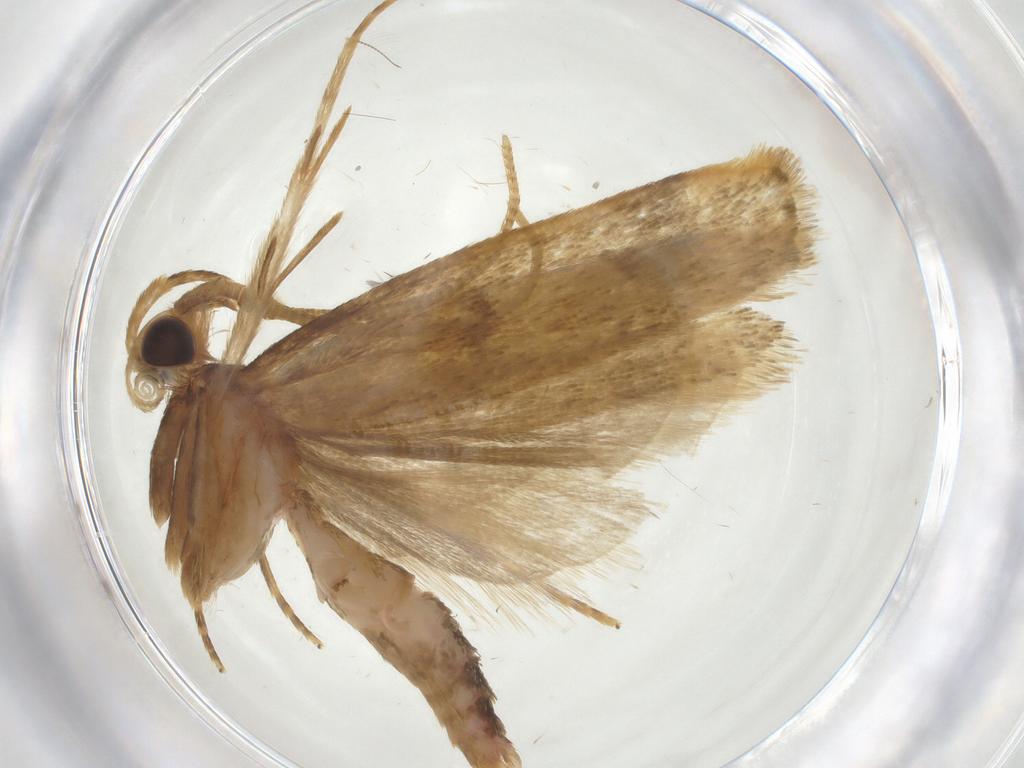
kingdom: Animalia
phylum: Arthropoda
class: Insecta
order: Lepidoptera
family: Autostichidae
